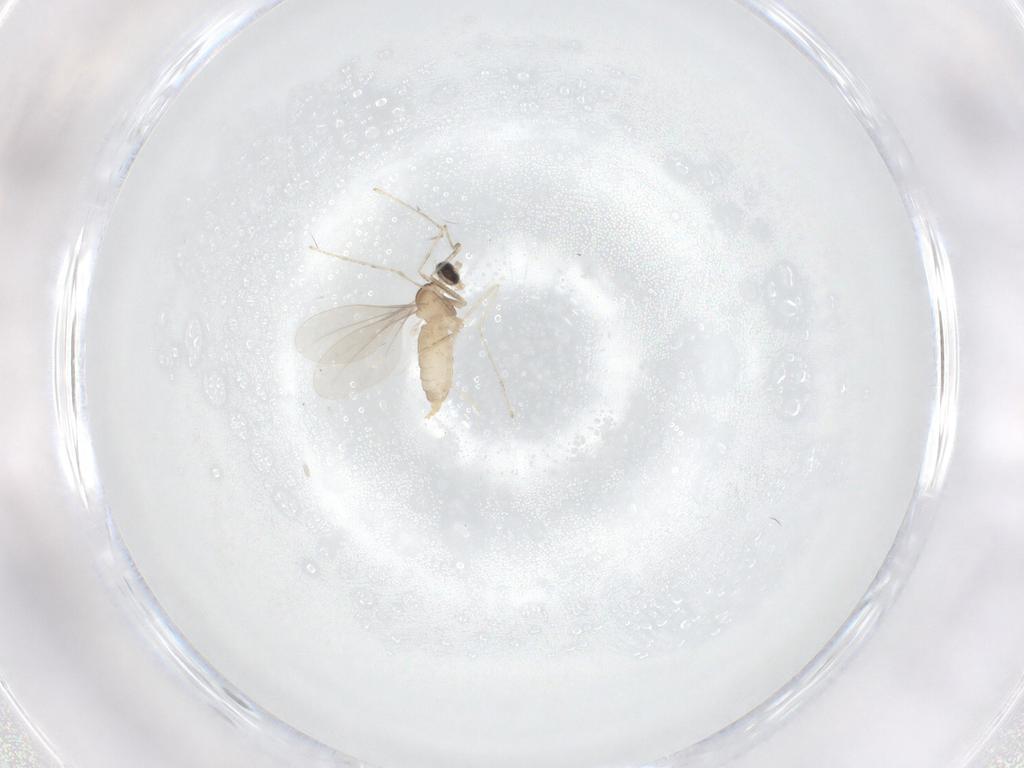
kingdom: Animalia
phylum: Arthropoda
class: Insecta
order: Diptera
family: Cecidomyiidae
